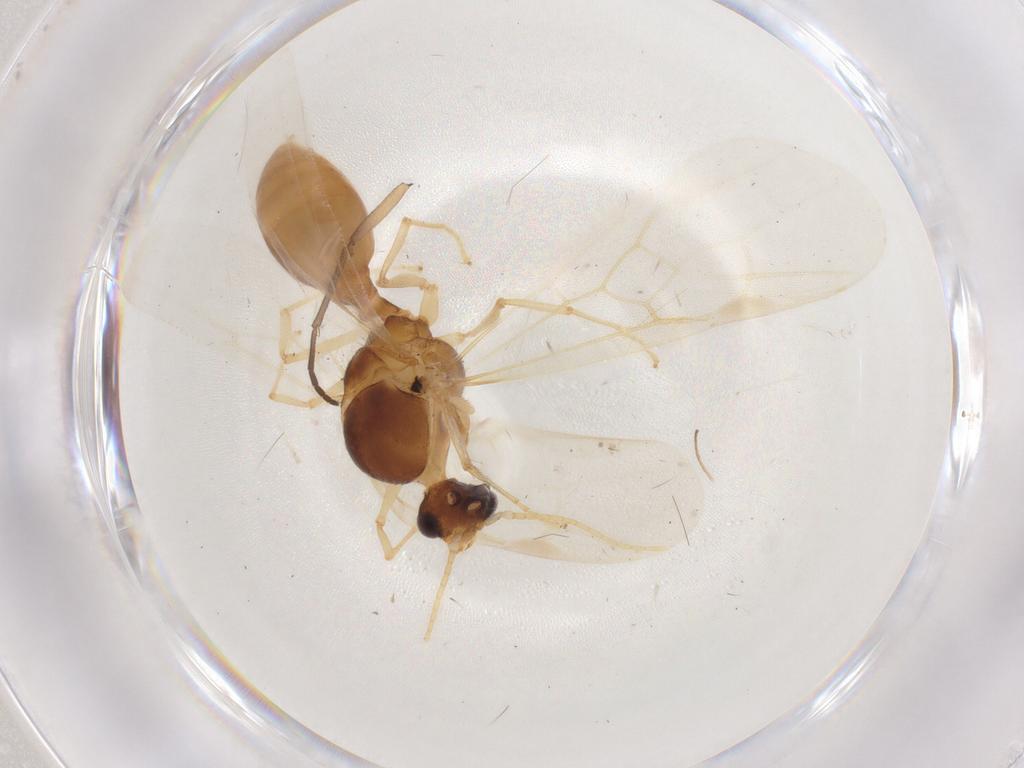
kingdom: Animalia
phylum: Arthropoda
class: Insecta
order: Hymenoptera
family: Formicidae
